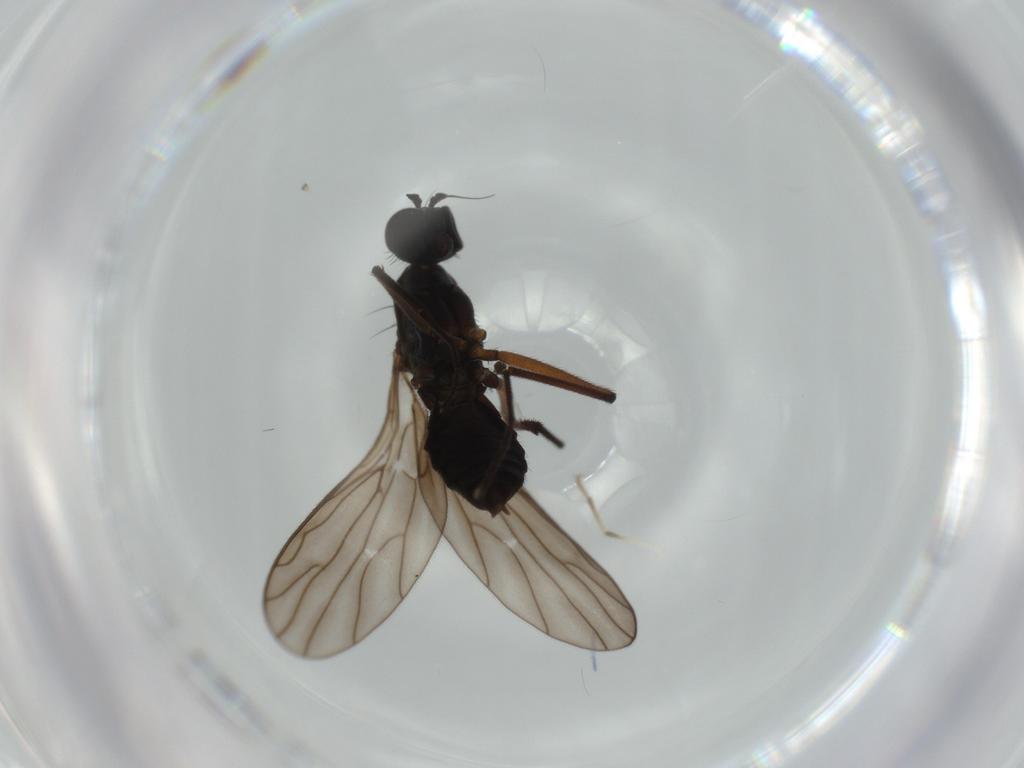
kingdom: Animalia
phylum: Arthropoda
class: Insecta
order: Diptera
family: Empididae
